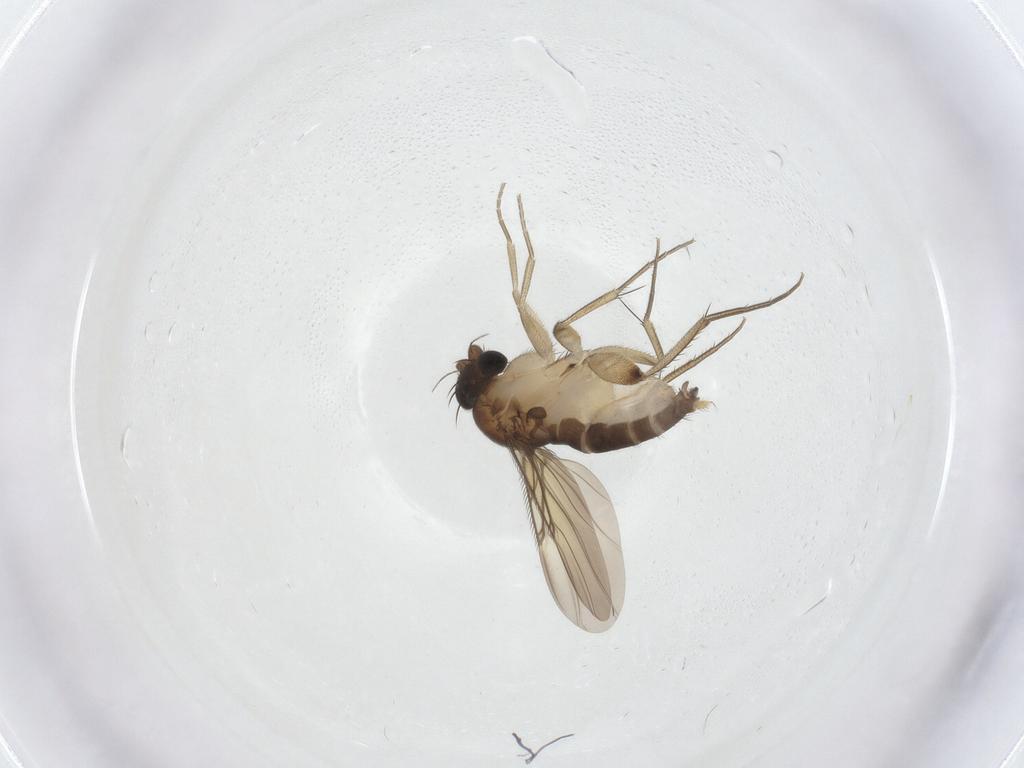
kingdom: Animalia
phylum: Arthropoda
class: Insecta
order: Diptera
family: Phoridae
